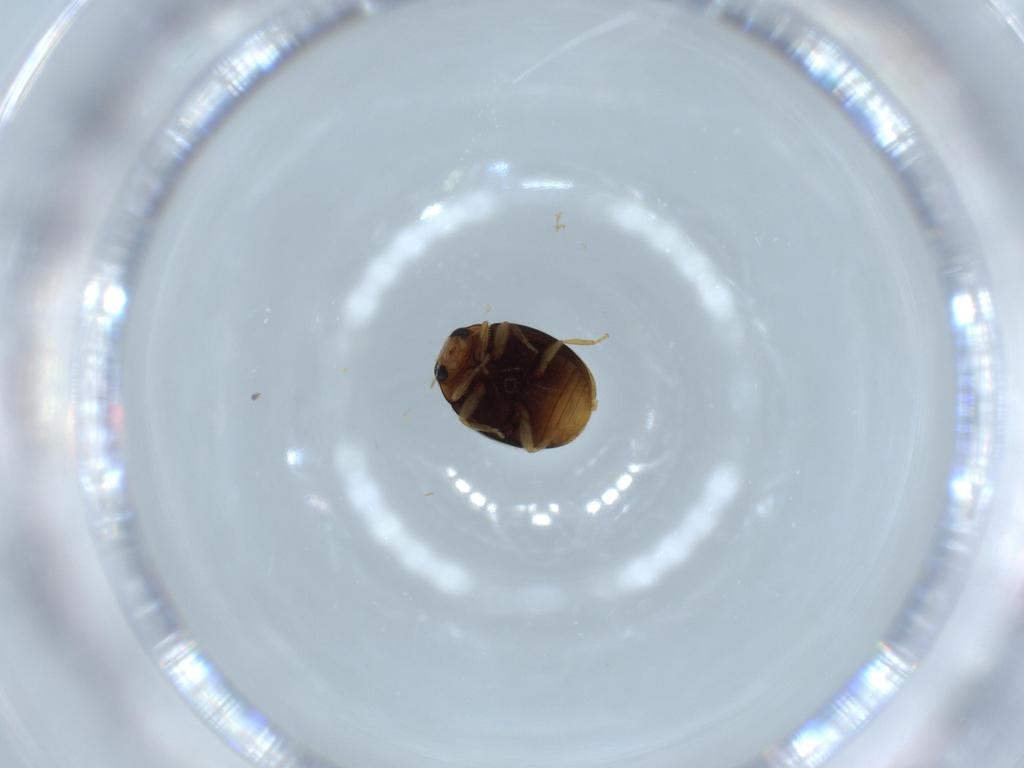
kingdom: Animalia
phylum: Arthropoda
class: Insecta
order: Coleoptera
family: Coccinellidae
